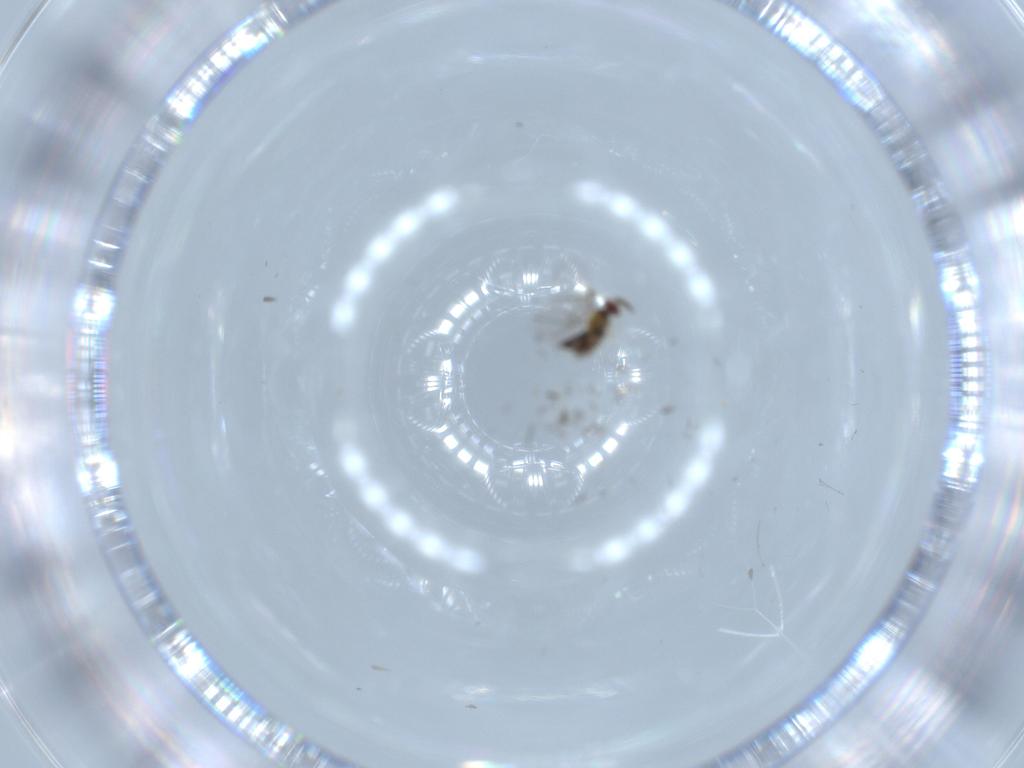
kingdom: Animalia
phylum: Arthropoda
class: Insecta
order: Hymenoptera
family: Trichogrammatidae
